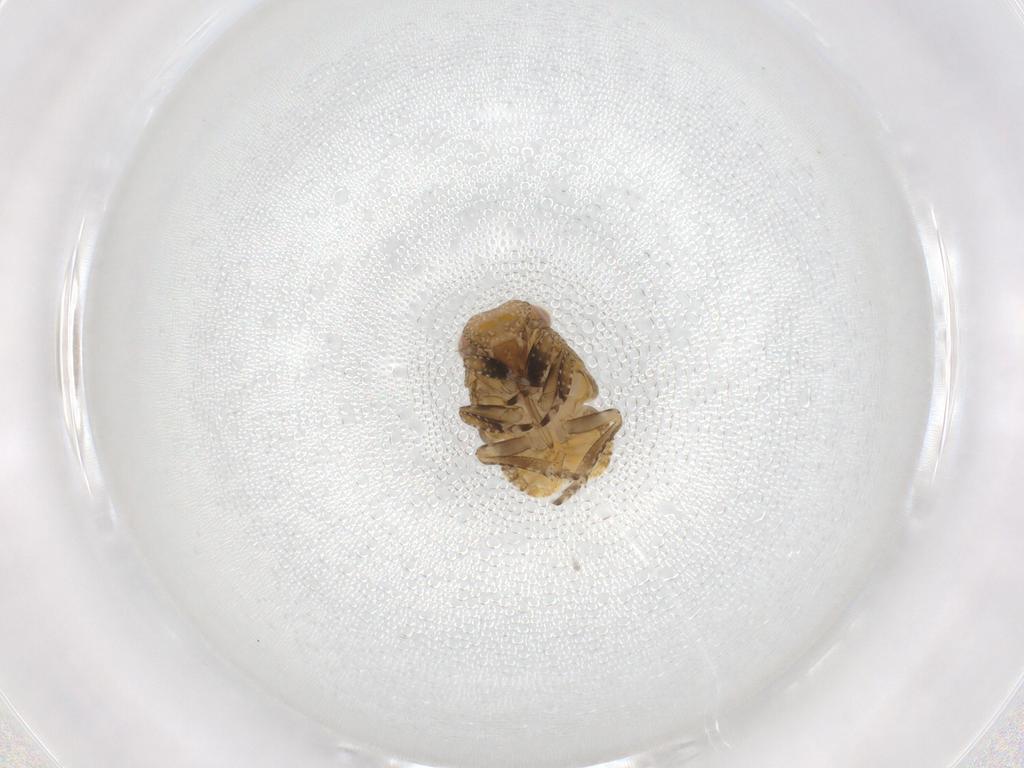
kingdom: Animalia
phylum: Arthropoda
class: Insecta
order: Hemiptera
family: Fulgoroidea_incertae_sedis
